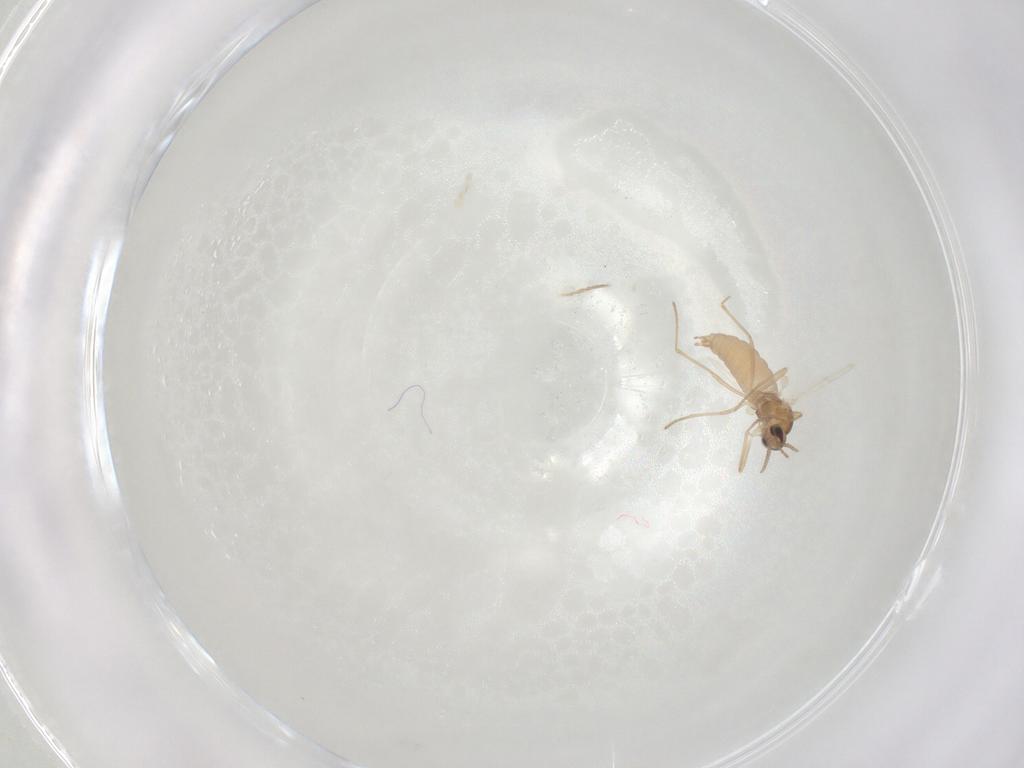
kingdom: Animalia
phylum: Arthropoda
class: Insecta
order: Diptera
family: Cecidomyiidae
